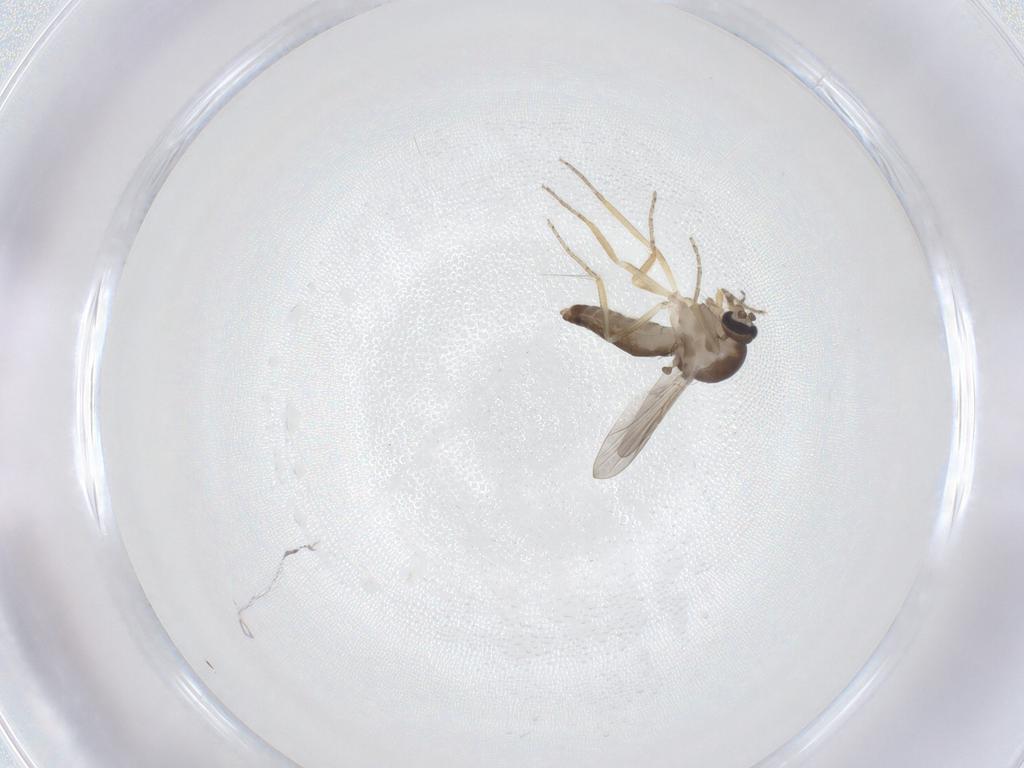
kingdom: Animalia
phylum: Arthropoda
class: Insecta
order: Diptera
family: Ceratopogonidae
